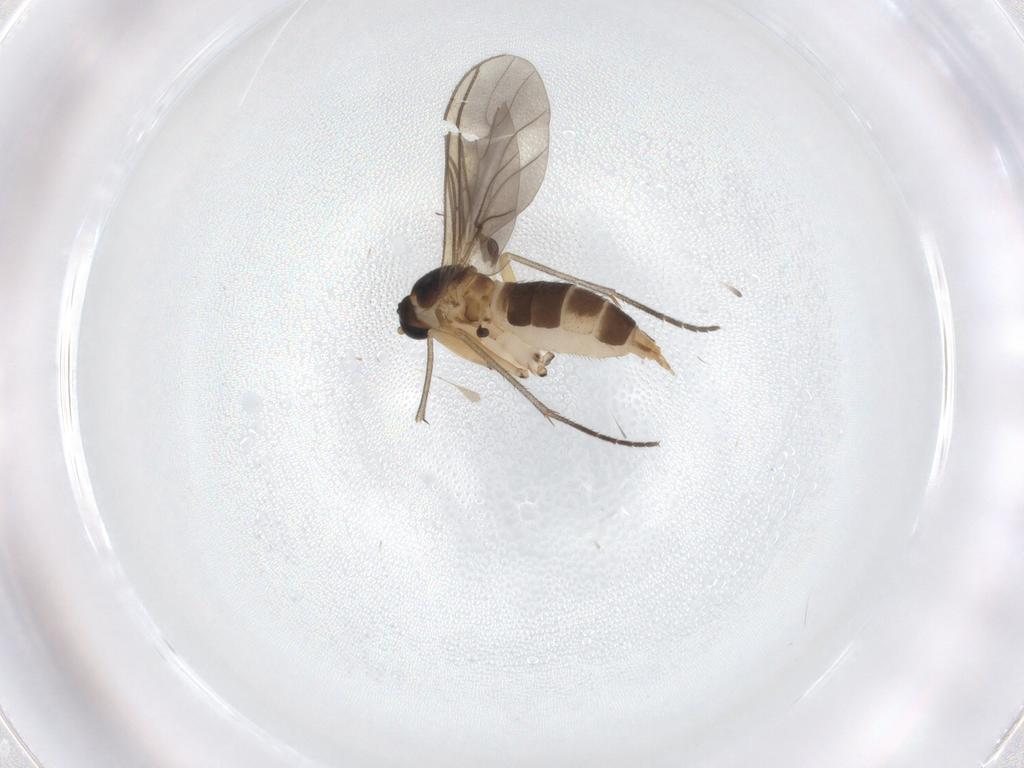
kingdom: Animalia
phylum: Arthropoda
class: Insecta
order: Diptera
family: Sciaridae
